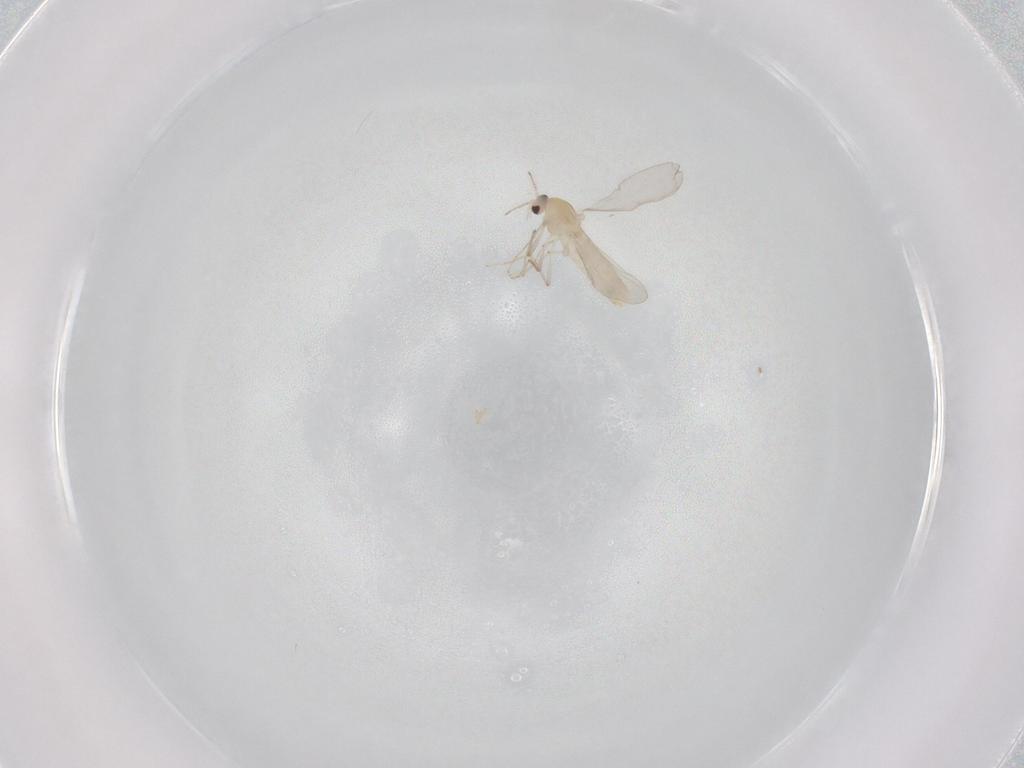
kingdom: Animalia
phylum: Arthropoda
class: Insecta
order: Diptera
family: Chironomidae
